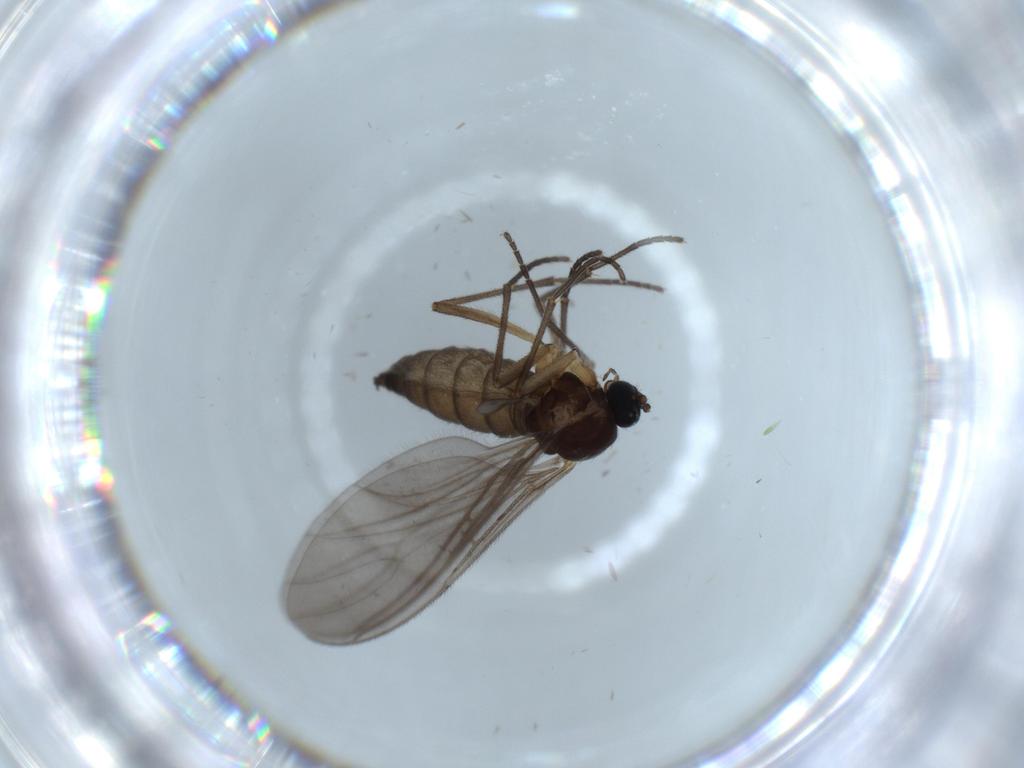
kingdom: Animalia
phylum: Arthropoda
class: Insecta
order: Diptera
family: Sciaridae
